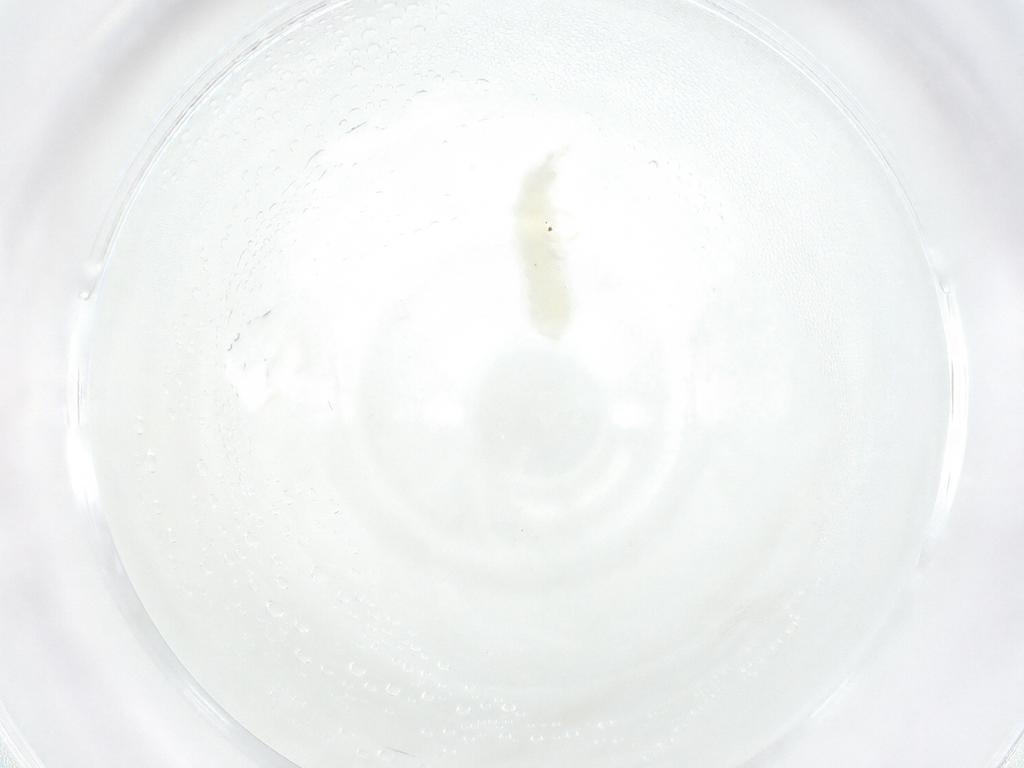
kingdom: Animalia
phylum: Arthropoda
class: Collembola
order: Poduromorpha
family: Onychiuridae
